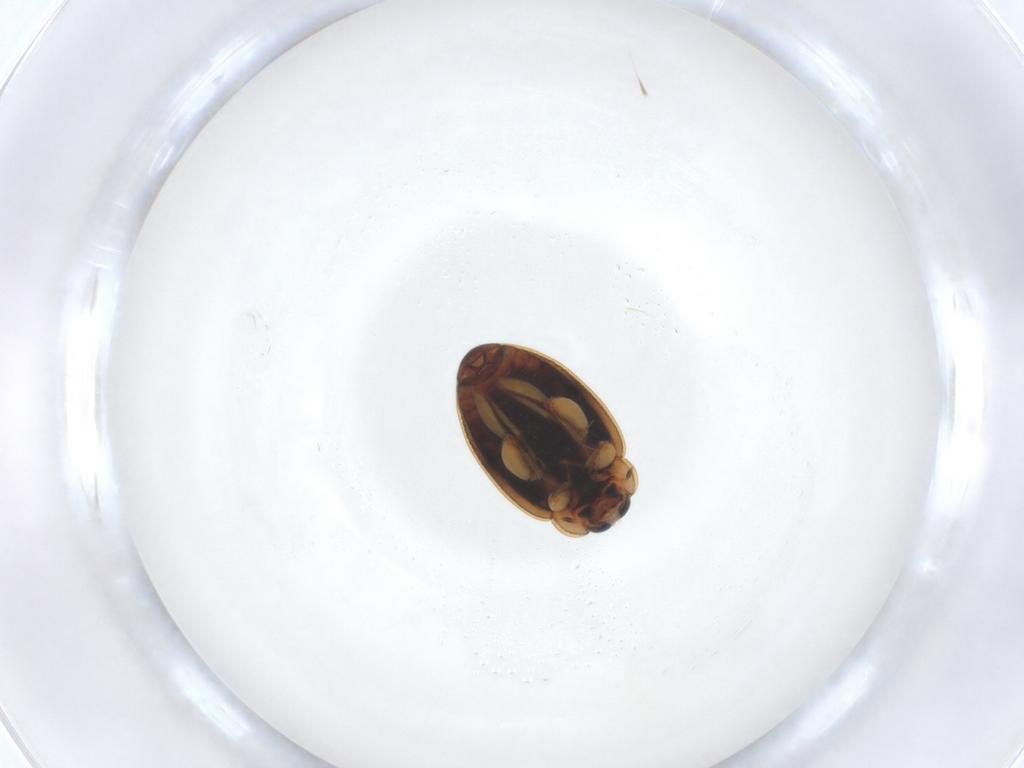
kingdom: Animalia
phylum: Arthropoda
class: Insecta
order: Coleoptera
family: Coccinellidae
